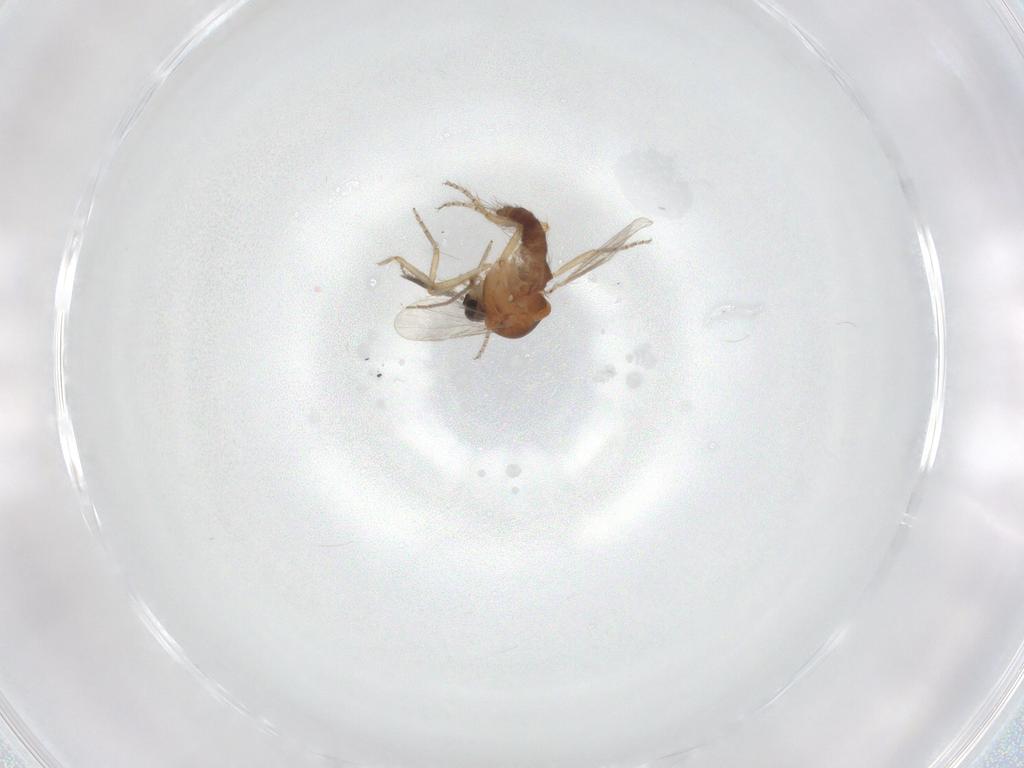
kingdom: Animalia
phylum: Arthropoda
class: Insecta
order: Diptera
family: Ceratopogonidae
